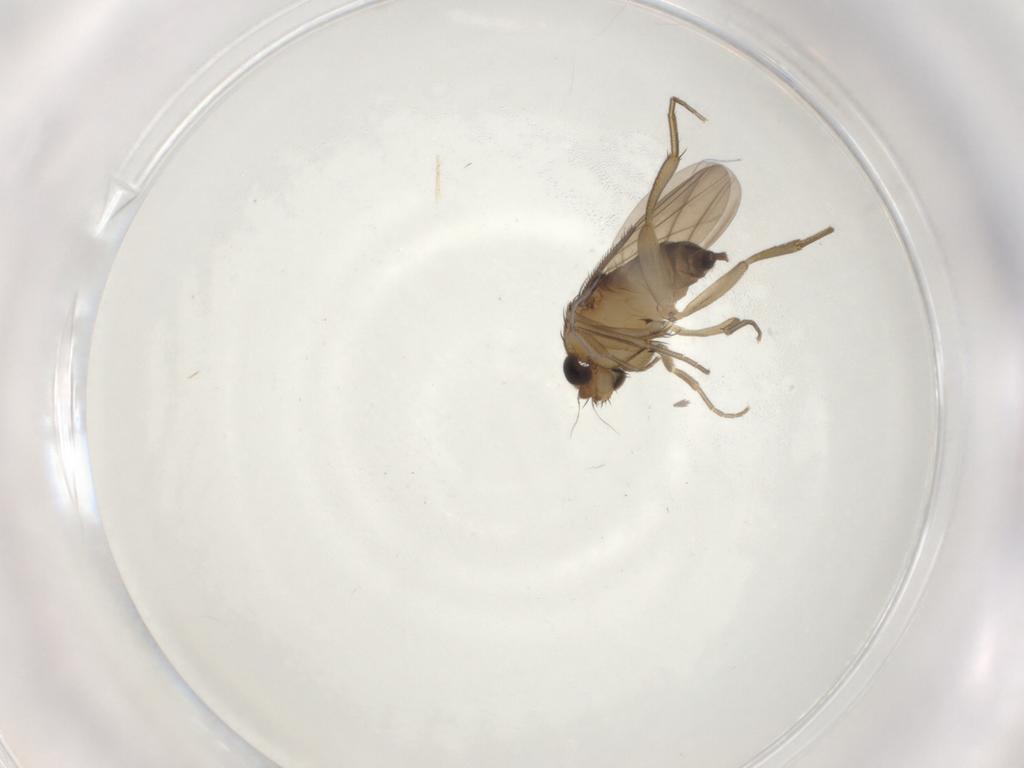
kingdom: Animalia
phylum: Arthropoda
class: Insecta
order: Diptera
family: Phoridae
